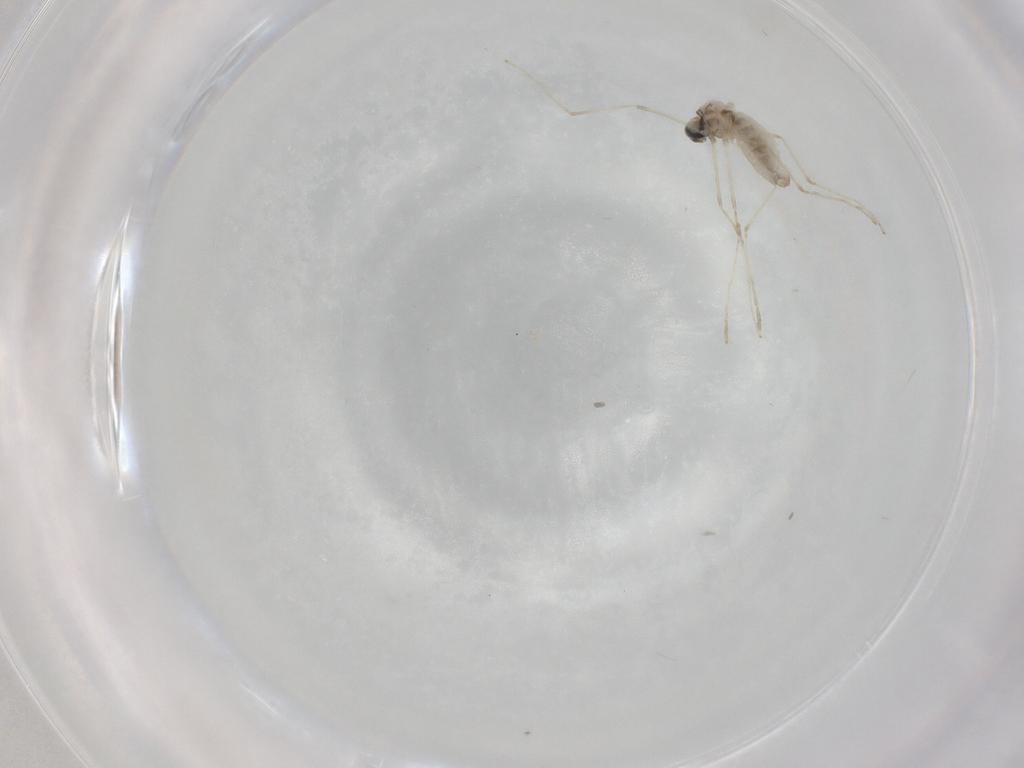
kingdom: Animalia
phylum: Arthropoda
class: Insecta
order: Diptera
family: Cecidomyiidae
